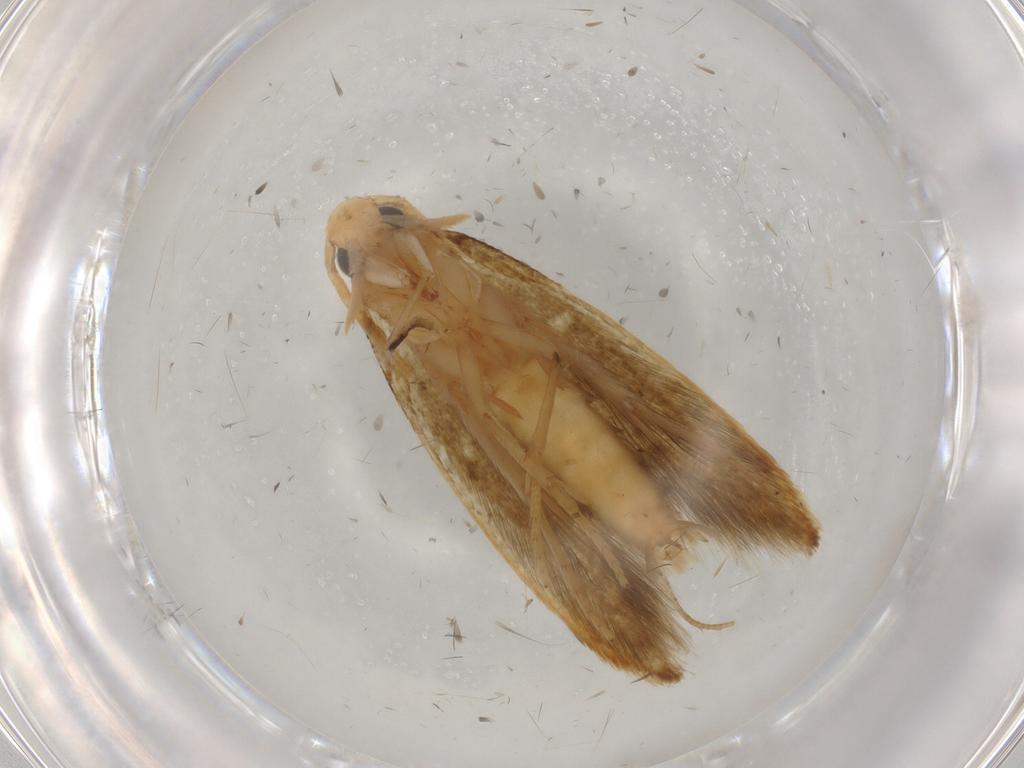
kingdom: Animalia
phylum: Arthropoda
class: Insecta
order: Lepidoptera
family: Tineidae
